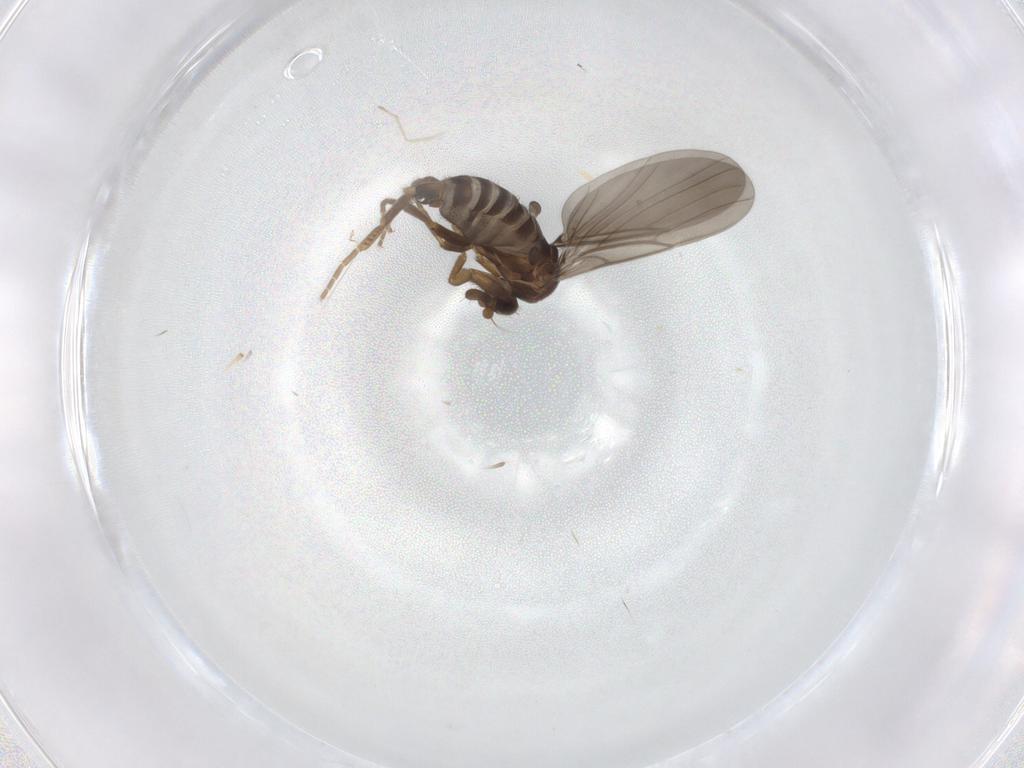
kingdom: Animalia
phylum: Arthropoda
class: Insecta
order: Diptera
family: Phoridae
